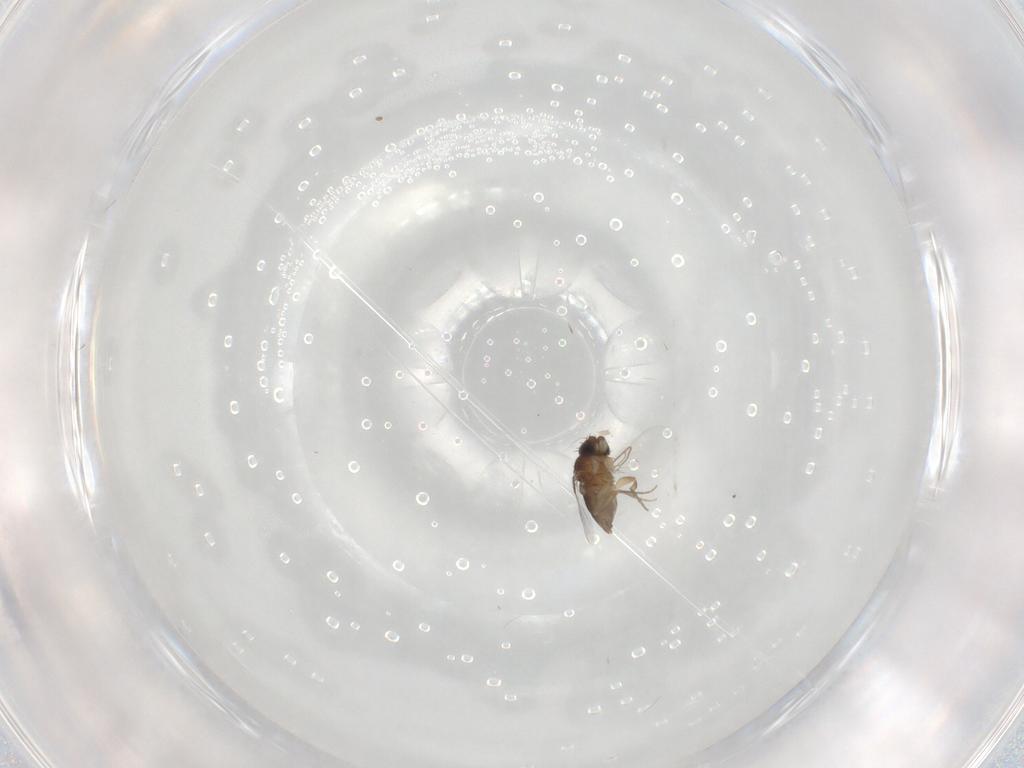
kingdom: Animalia
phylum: Arthropoda
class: Insecta
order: Diptera
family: Phoridae
